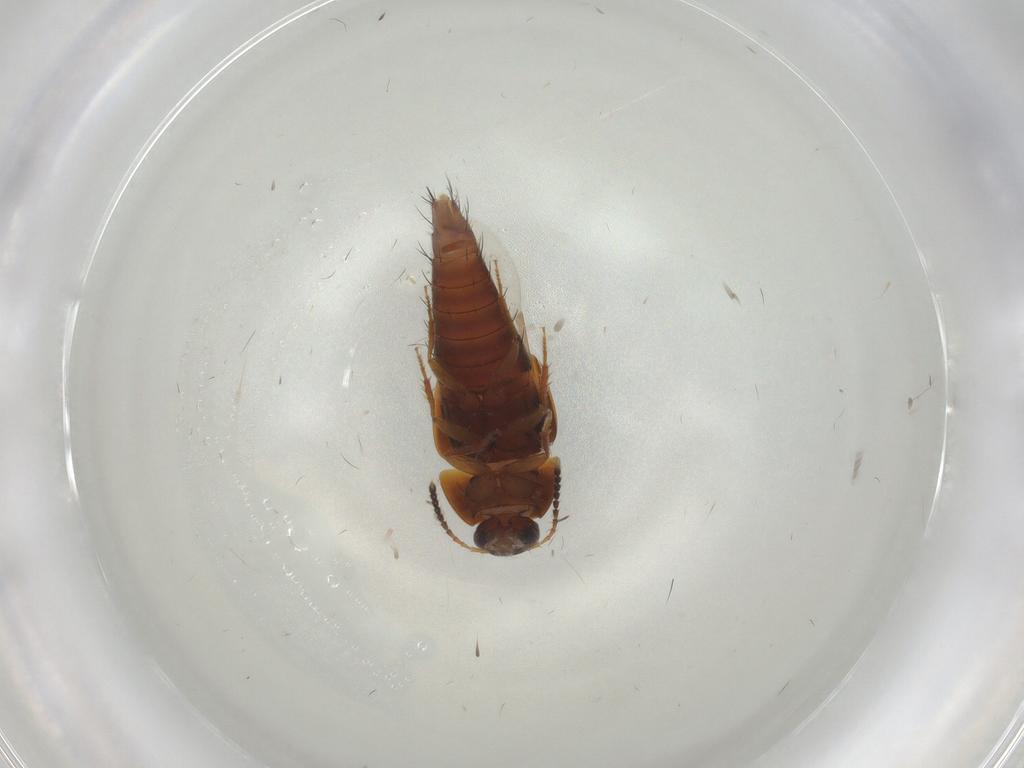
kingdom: Animalia
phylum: Arthropoda
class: Insecta
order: Coleoptera
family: Staphylinidae
